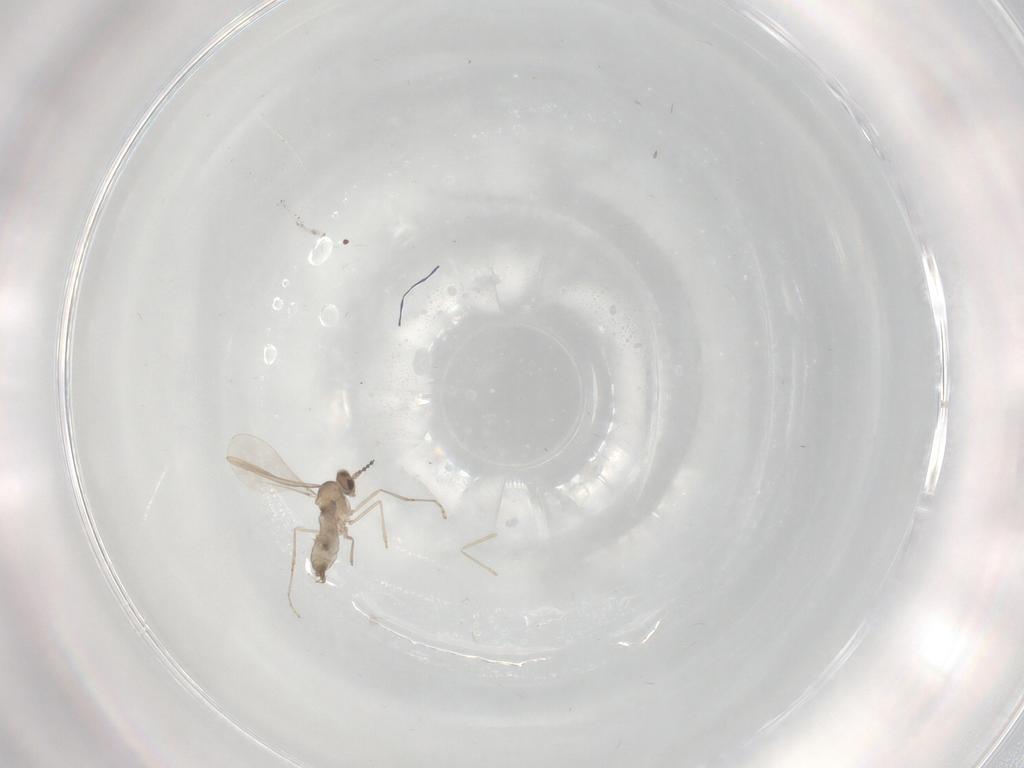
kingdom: Animalia
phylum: Arthropoda
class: Insecta
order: Diptera
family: Cecidomyiidae
